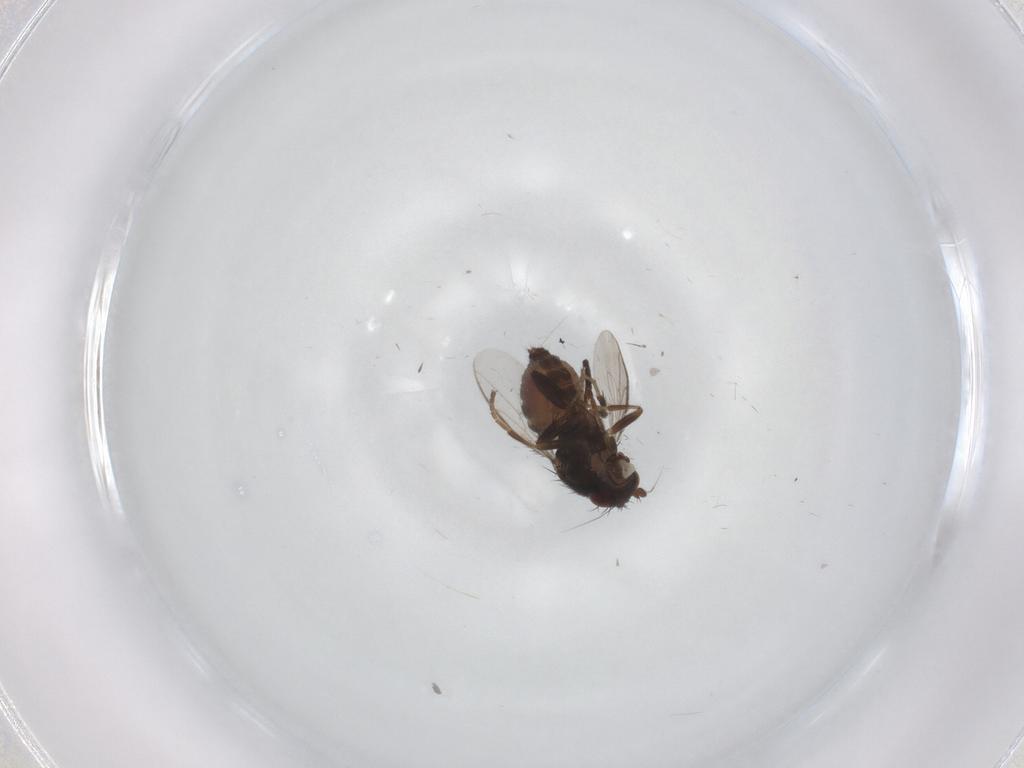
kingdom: Animalia
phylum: Arthropoda
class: Insecta
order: Diptera
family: Sphaeroceridae
